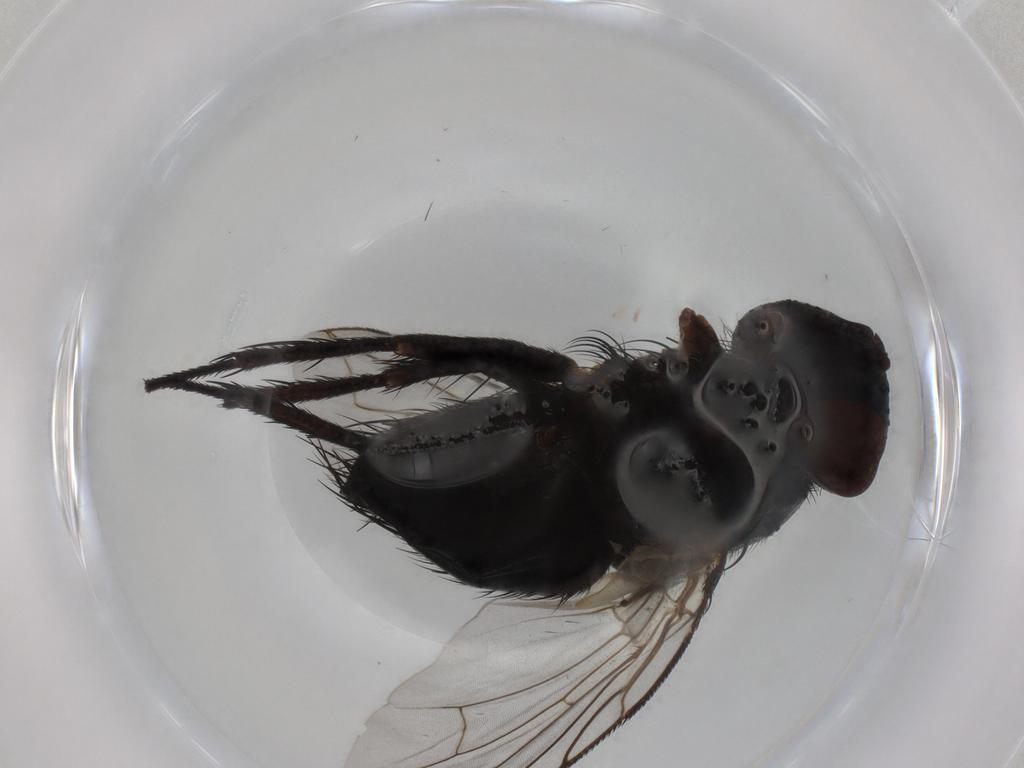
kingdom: Animalia
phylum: Arthropoda
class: Insecta
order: Diptera
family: Tachinidae
